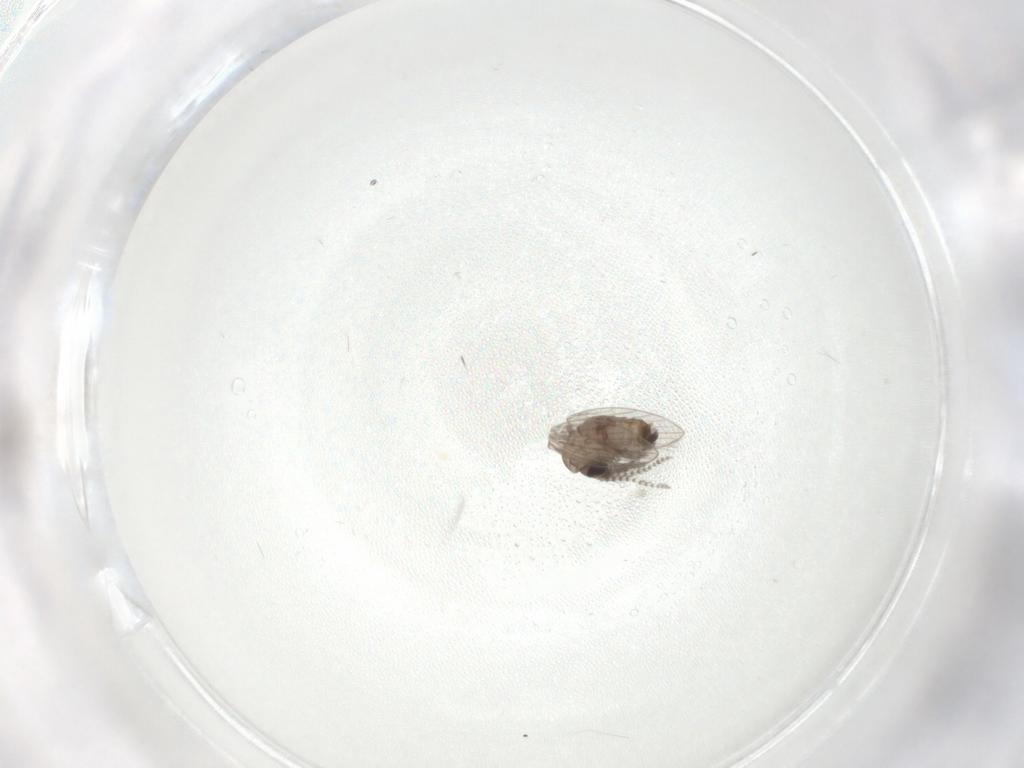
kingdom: Animalia
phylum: Arthropoda
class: Insecta
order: Diptera
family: Psychodidae
